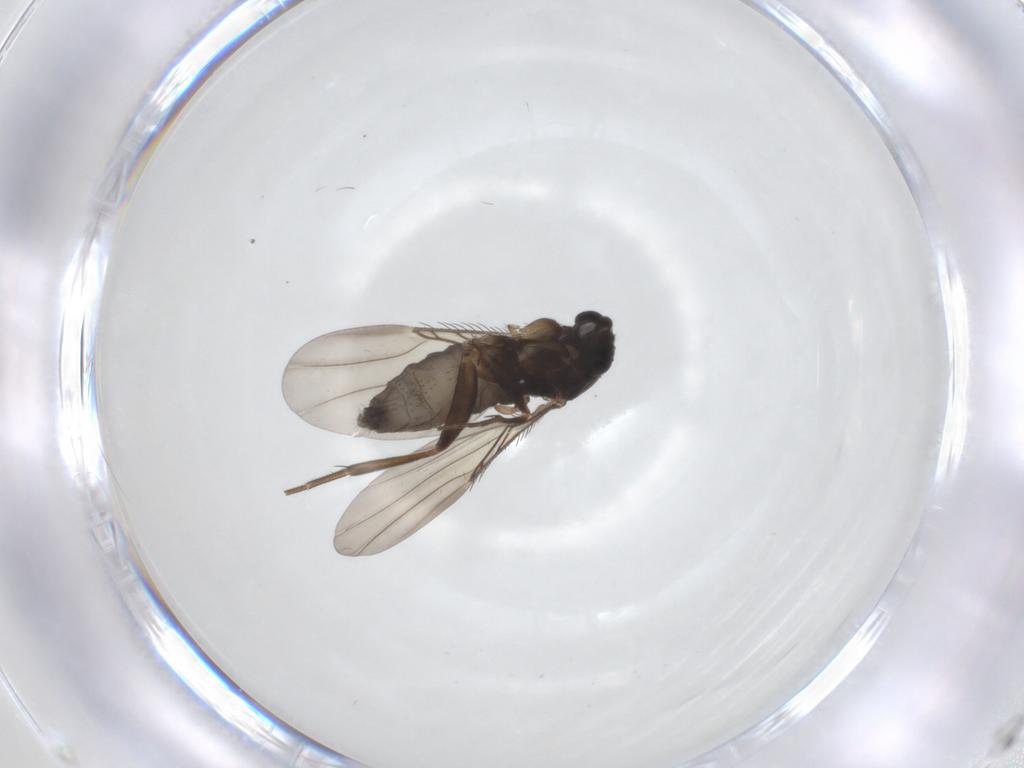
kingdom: Animalia
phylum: Arthropoda
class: Insecta
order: Diptera
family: Phoridae
